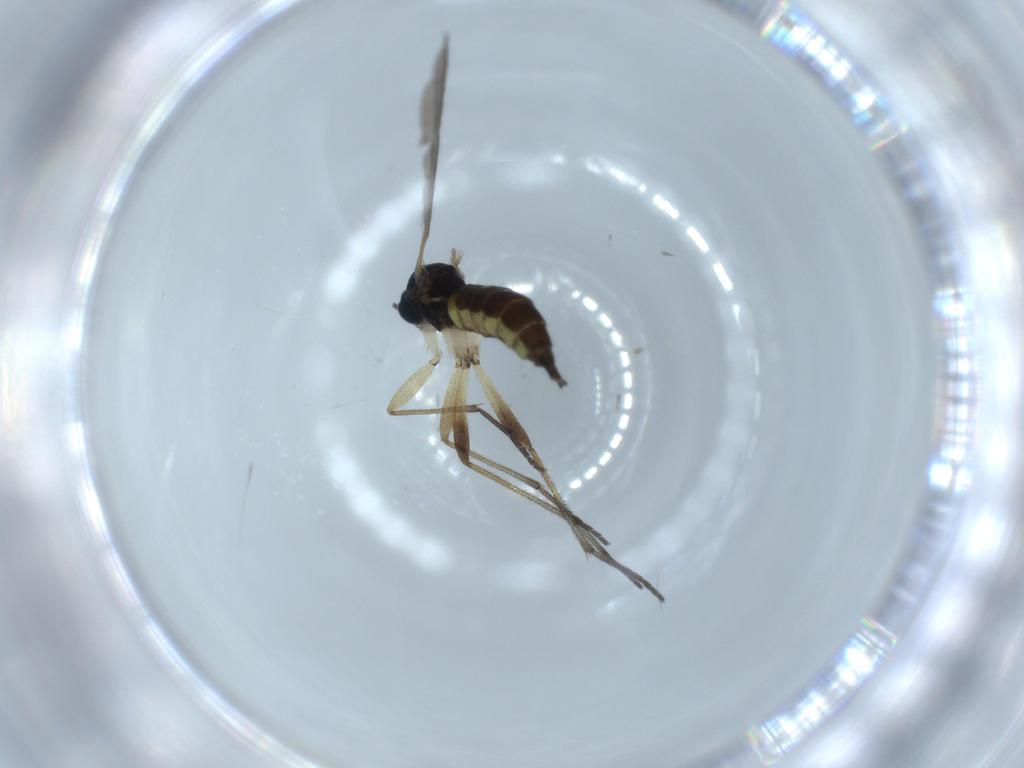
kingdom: Animalia
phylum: Arthropoda
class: Insecta
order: Diptera
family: Sciaridae
